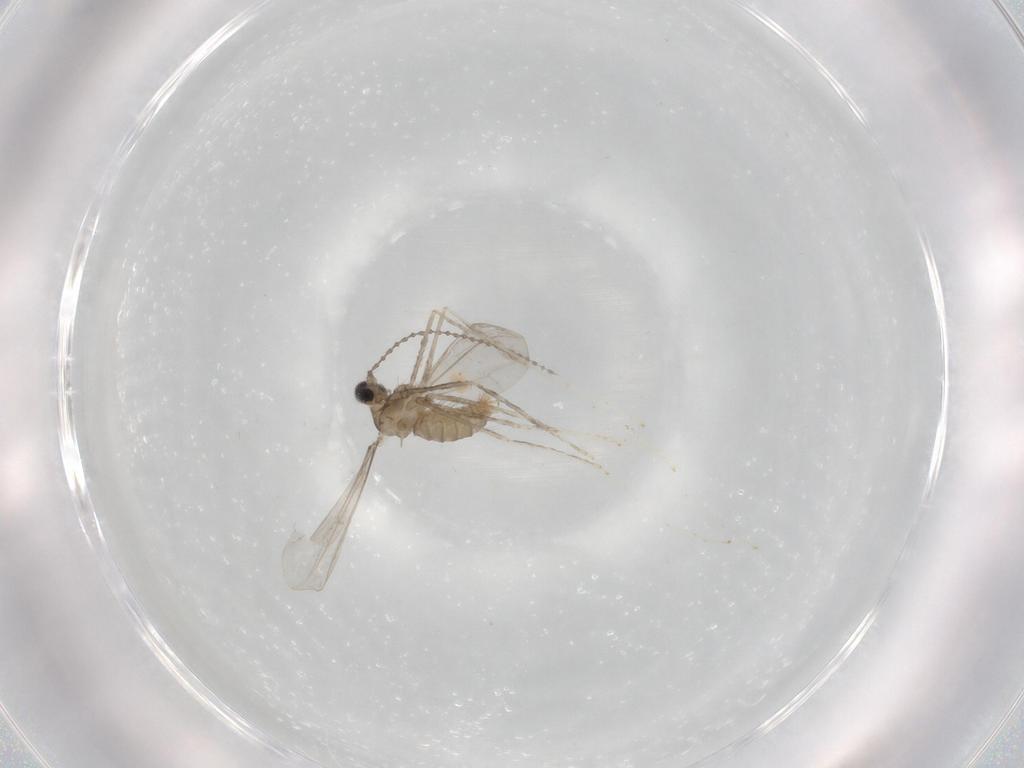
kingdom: Animalia
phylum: Arthropoda
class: Insecta
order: Diptera
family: Cecidomyiidae
